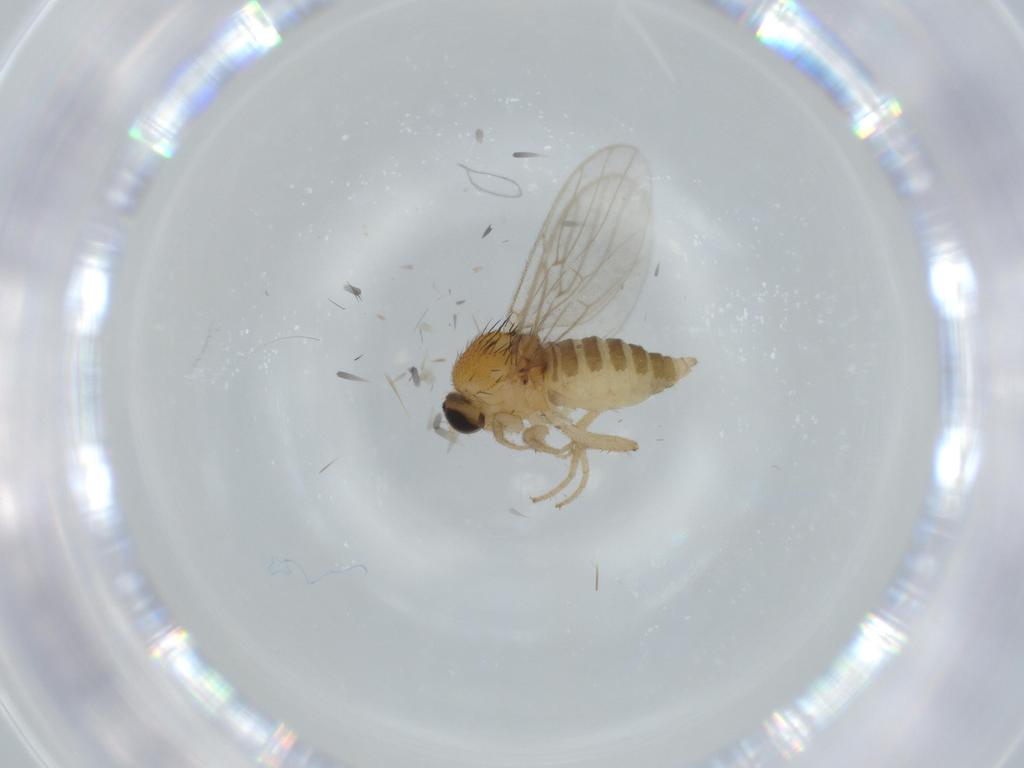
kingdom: Animalia
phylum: Arthropoda
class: Insecta
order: Diptera
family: Hybotidae
